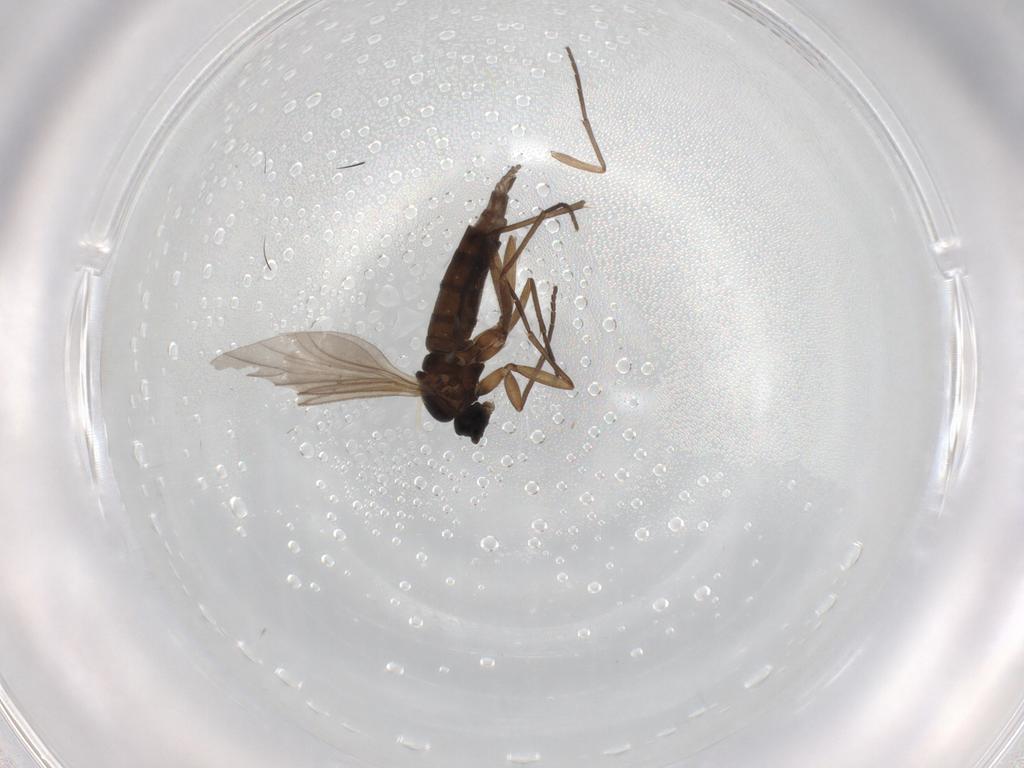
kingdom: Animalia
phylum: Arthropoda
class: Insecta
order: Diptera
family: Sciaridae
